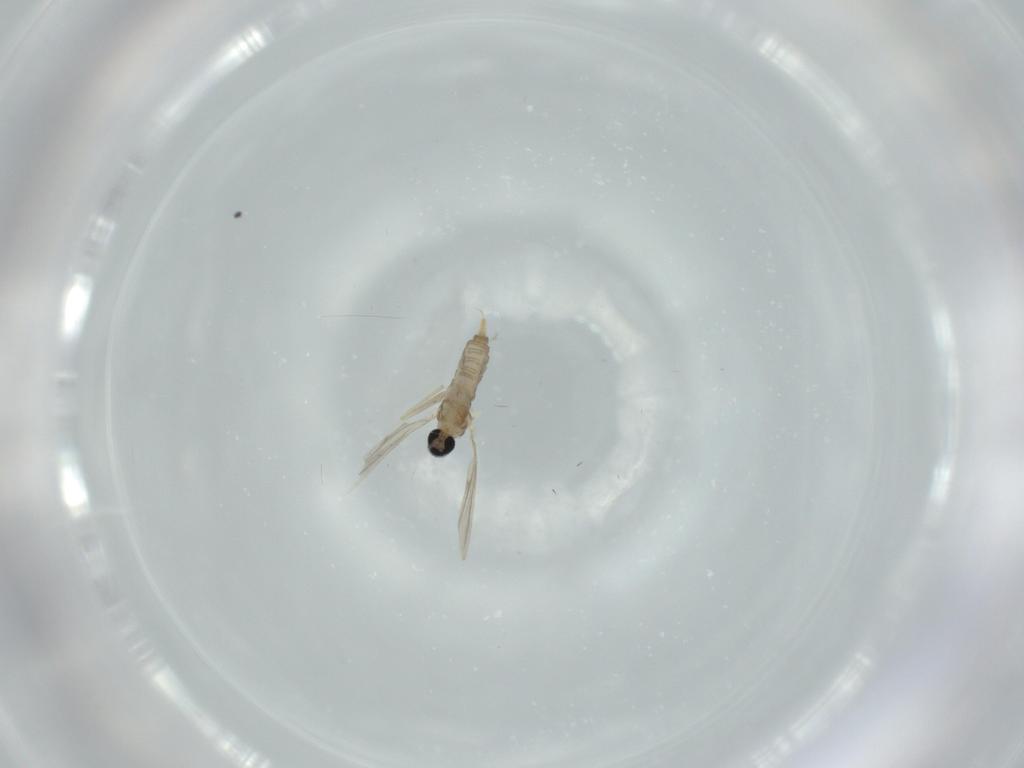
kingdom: Animalia
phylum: Arthropoda
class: Insecta
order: Diptera
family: Cecidomyiidae
